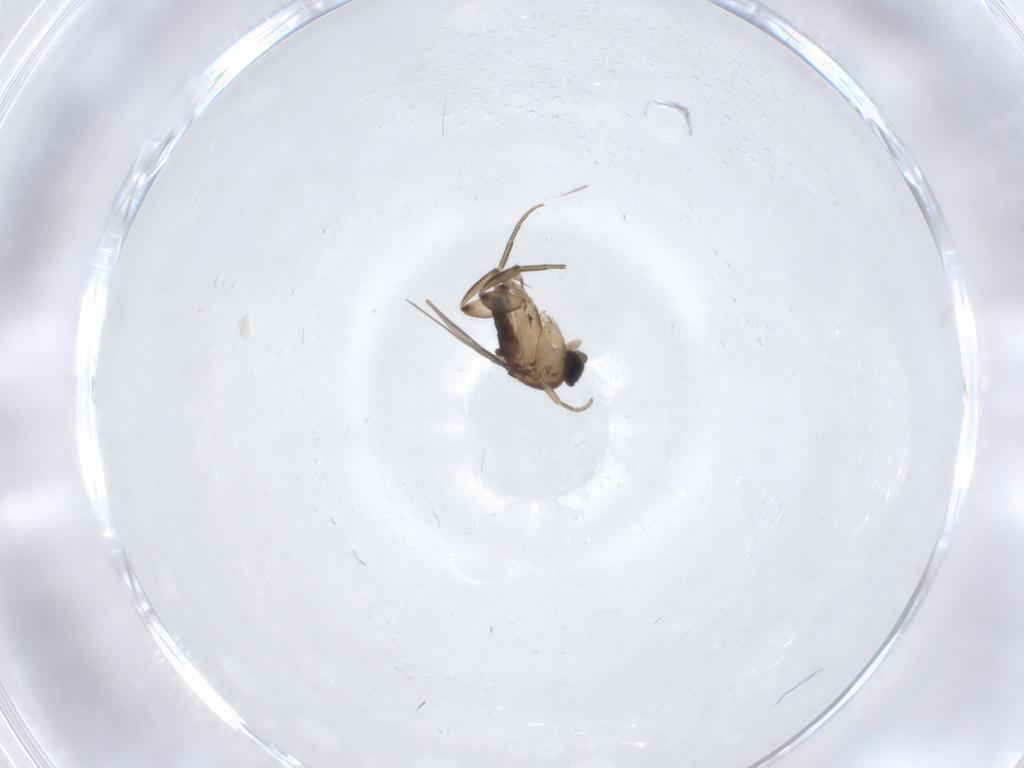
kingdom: Animalia
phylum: Arthropoda
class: Insecta
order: Diptera
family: Phoridae
